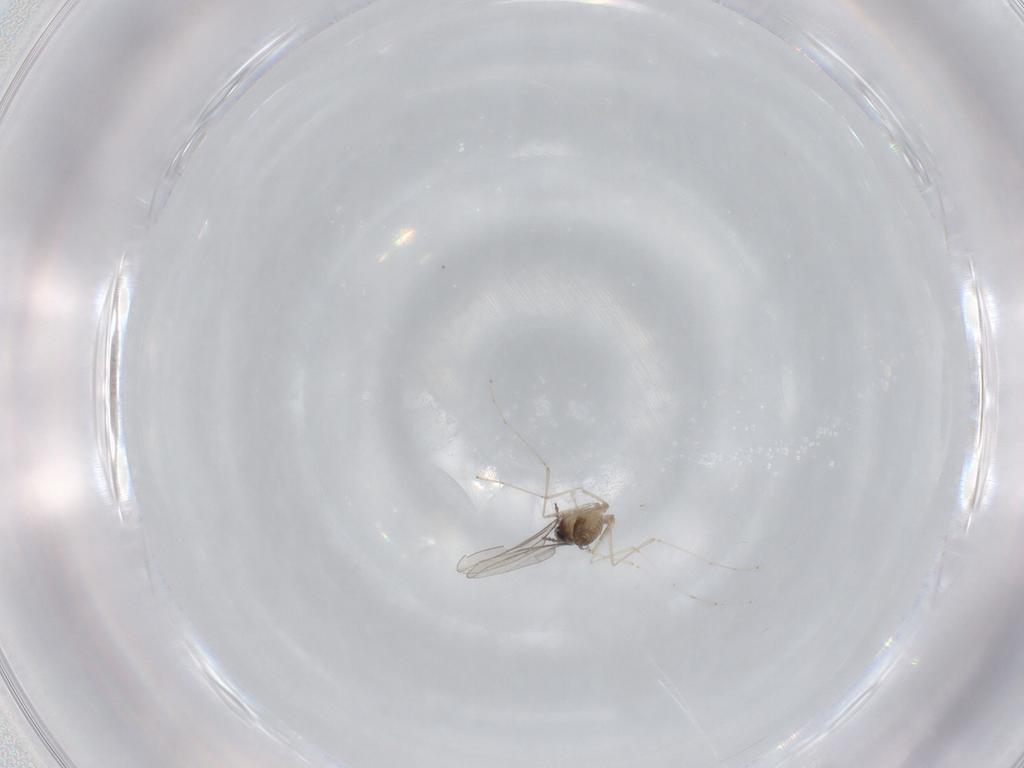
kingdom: Animalia
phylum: Arthropoda
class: Insecta
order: Diptera
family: Cecidomyiidae
